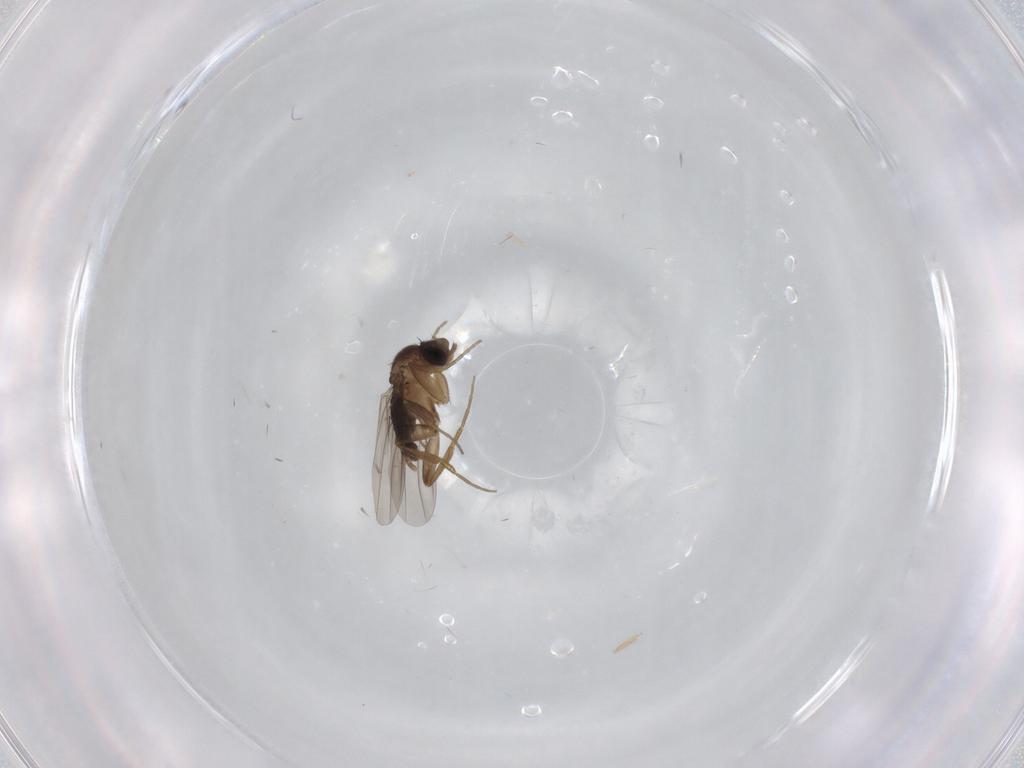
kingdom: Animalia
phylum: Arthropoda
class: Insecta
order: Diptera
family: Phoridae
